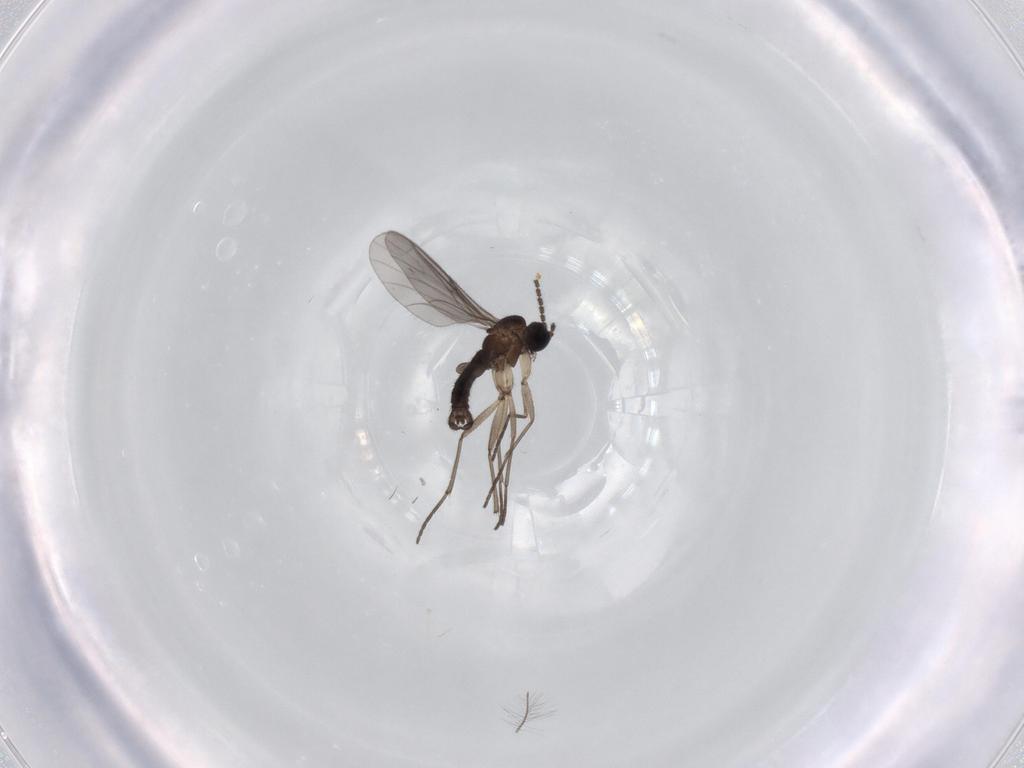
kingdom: Animalia
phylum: Arthropoda
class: Insecta
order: Diptera
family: Sciaridae
